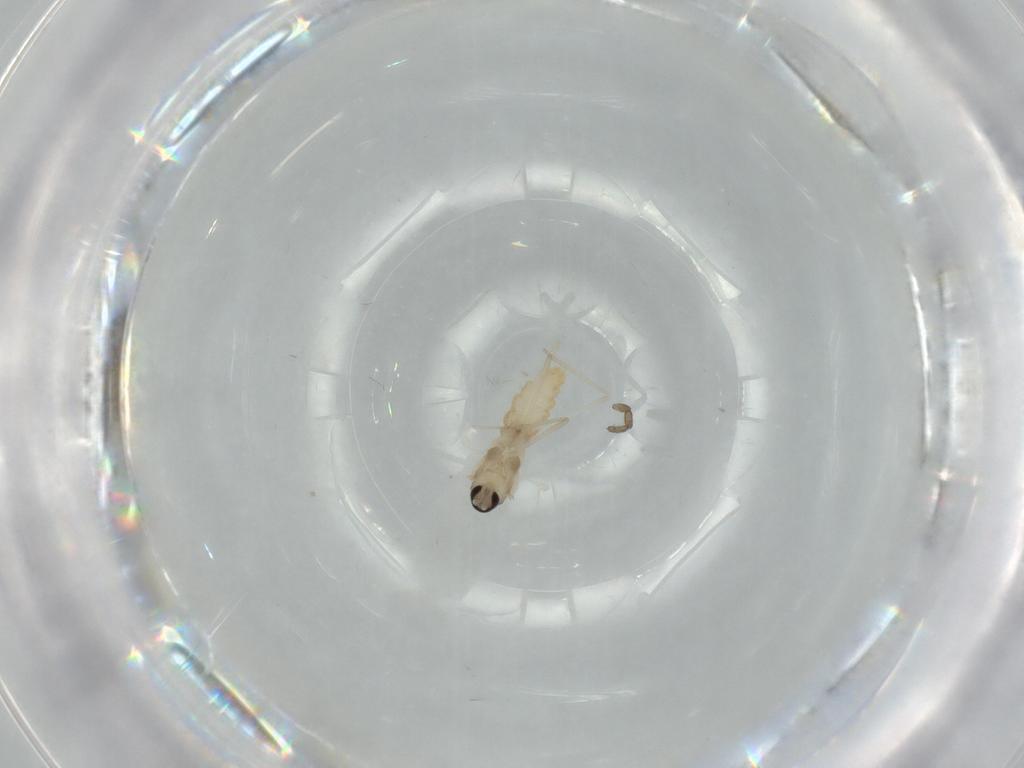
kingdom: Animalia
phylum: Arthropoda
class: Insecta
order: Diptera
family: Cecidomyiidae
